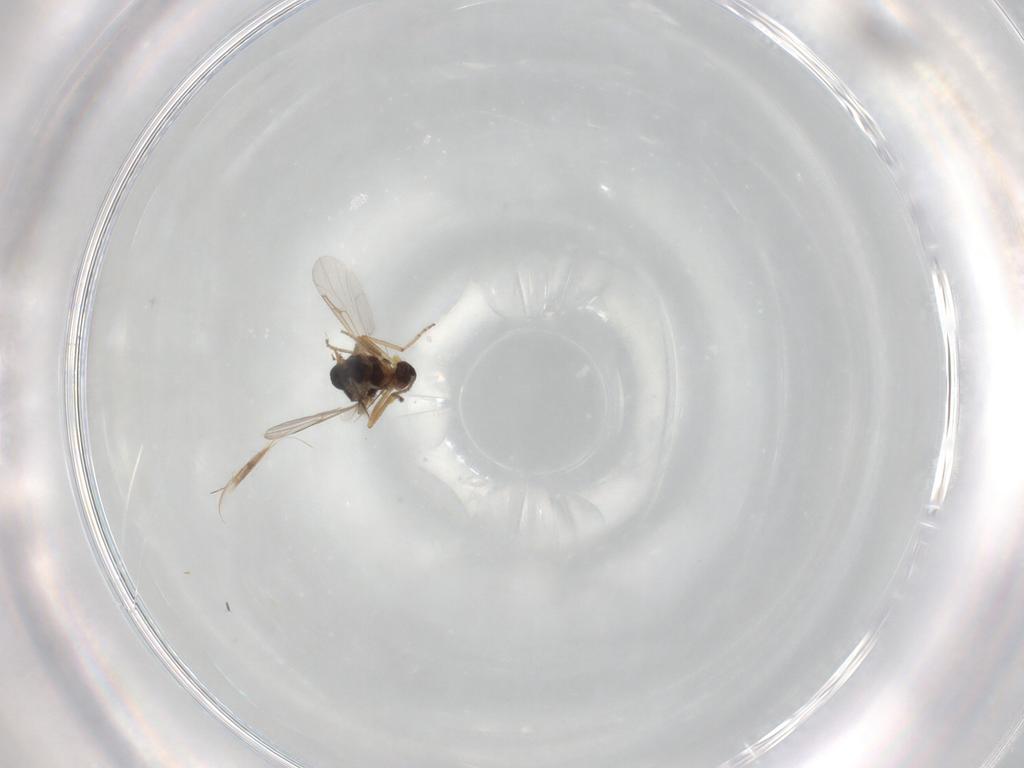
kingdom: Animalia
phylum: Arthropoda
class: Insecta
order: Diptera
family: Ceratopogonidae
